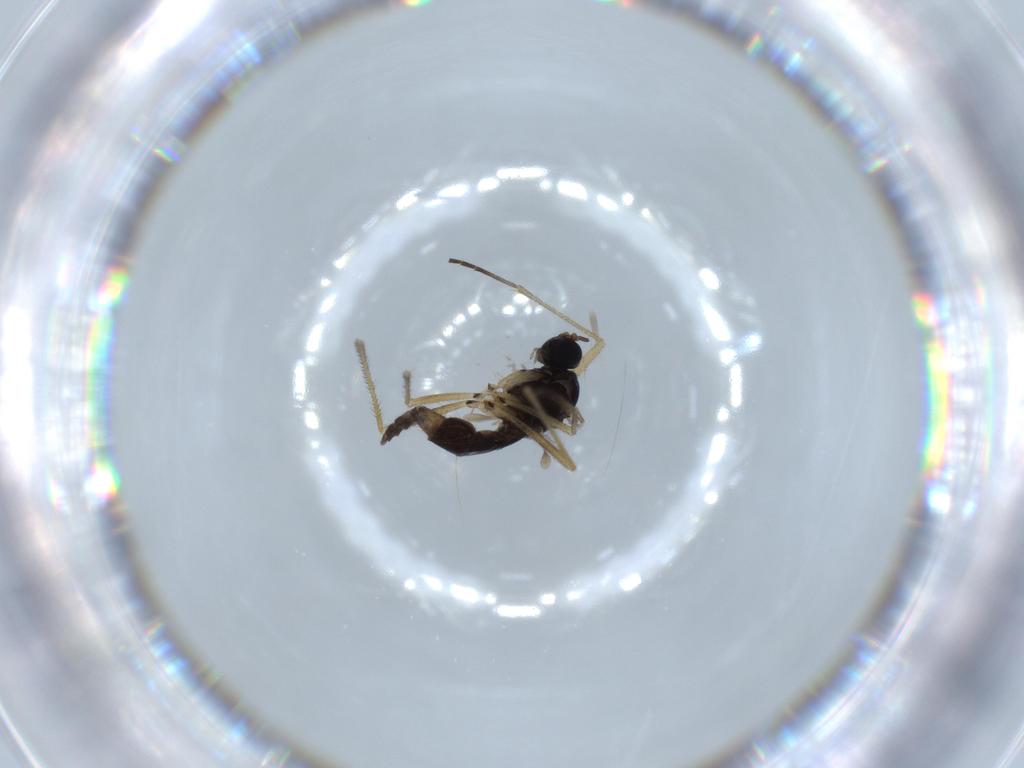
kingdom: Animalia
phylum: Arthropoda
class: Insecta
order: Diptera
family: Sciaridae
